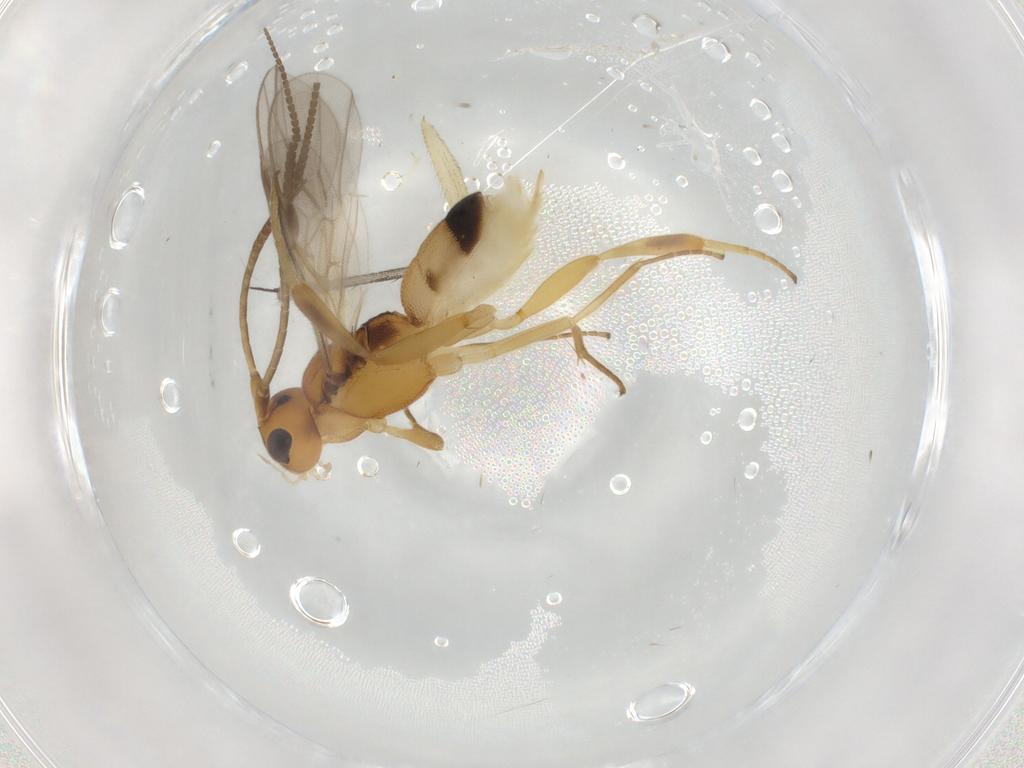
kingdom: Animalia
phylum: Arthropoda
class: Insecta
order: Hymenoptera
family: Braconidae
